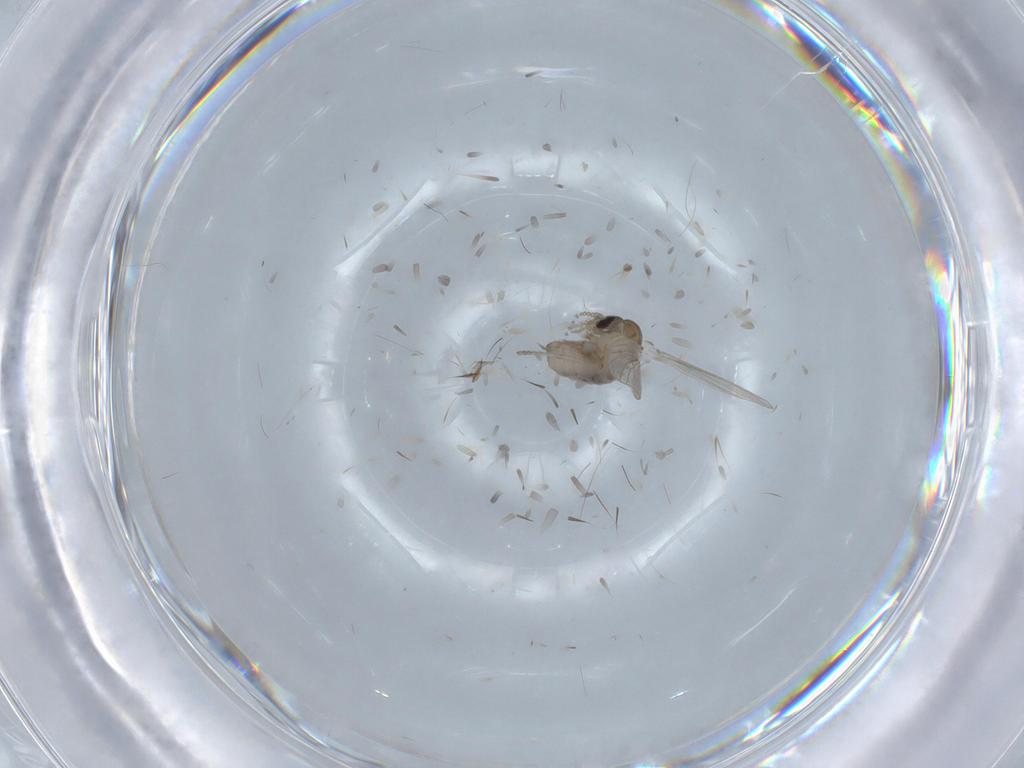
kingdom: Animalia
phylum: Arthropoda
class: Insecta
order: Diptera
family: Psychodidae
